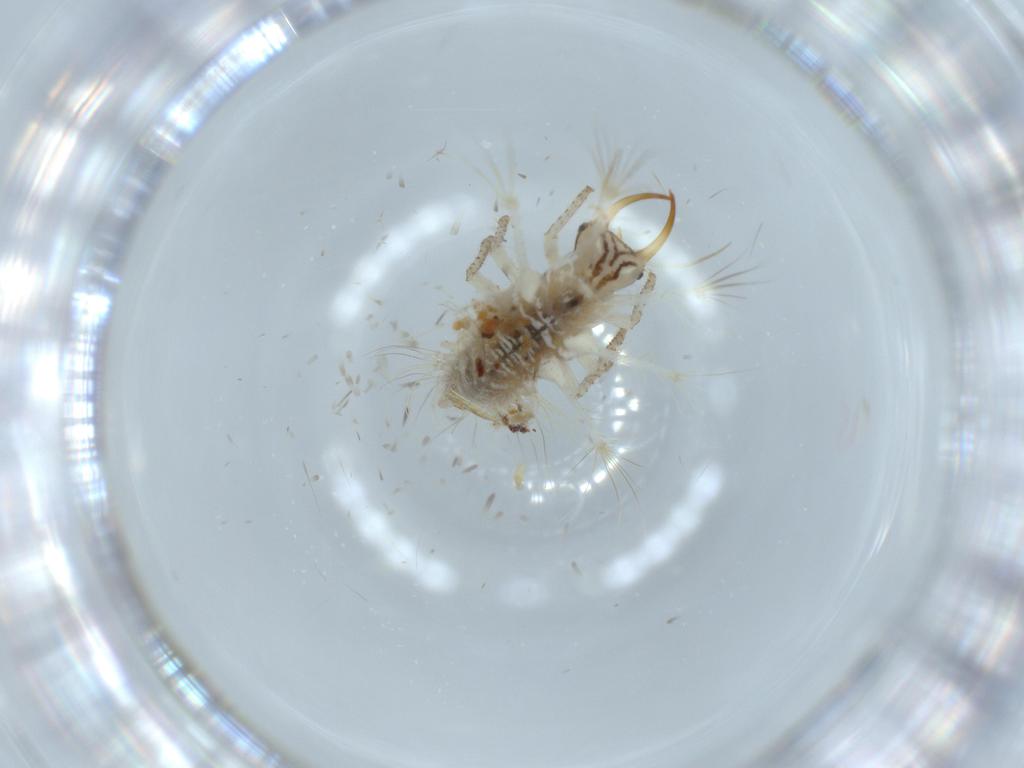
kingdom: Animalia
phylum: Arthropoda
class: Insecta
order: Neuroptera
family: Chrysopidae
